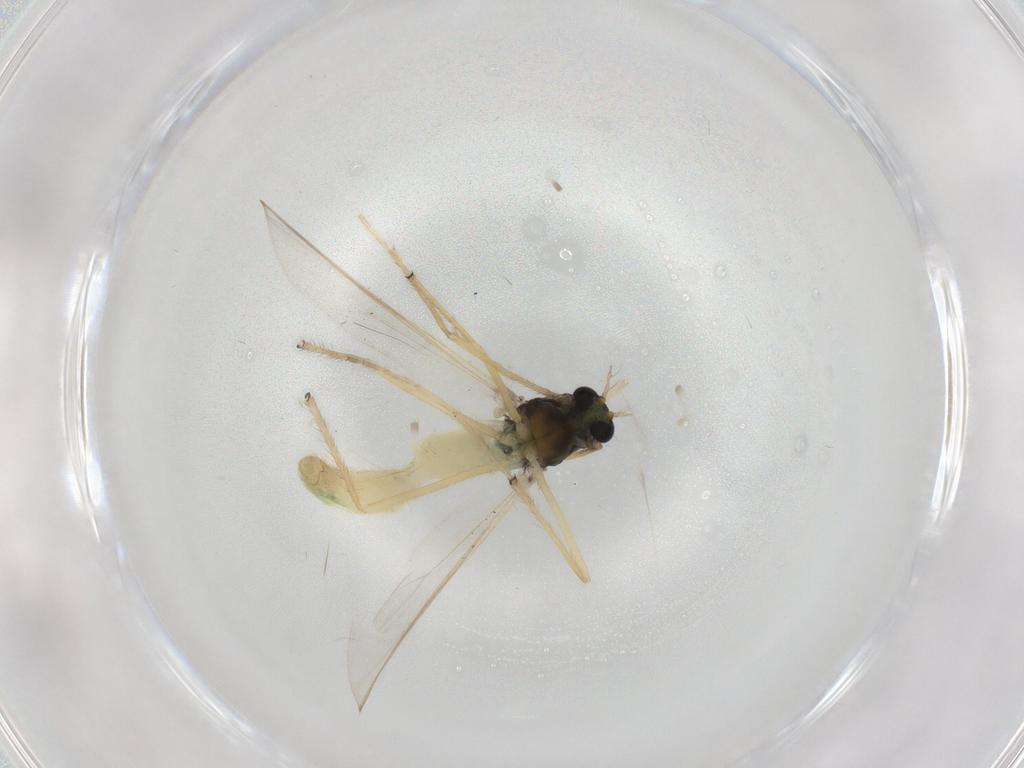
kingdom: Animalia
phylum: Arthropoda
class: Insecta
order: Diptera
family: Chironomidae
